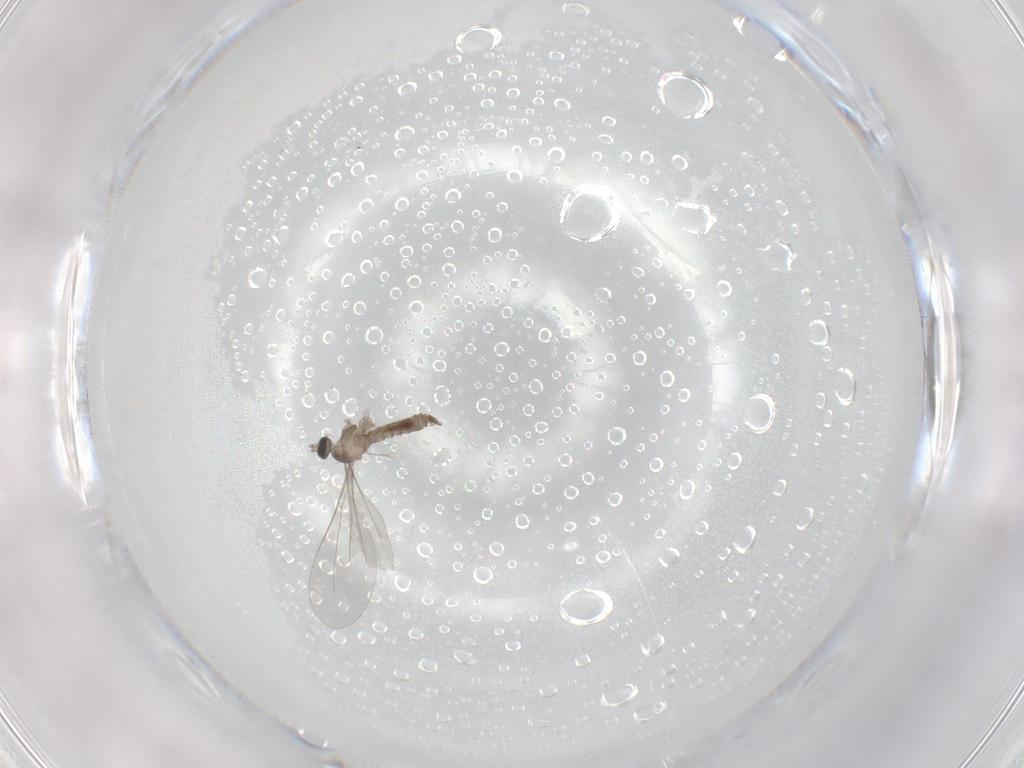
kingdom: Animalia
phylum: Arthropoda
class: Insecta
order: Diptera
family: Cecidomyiidae
